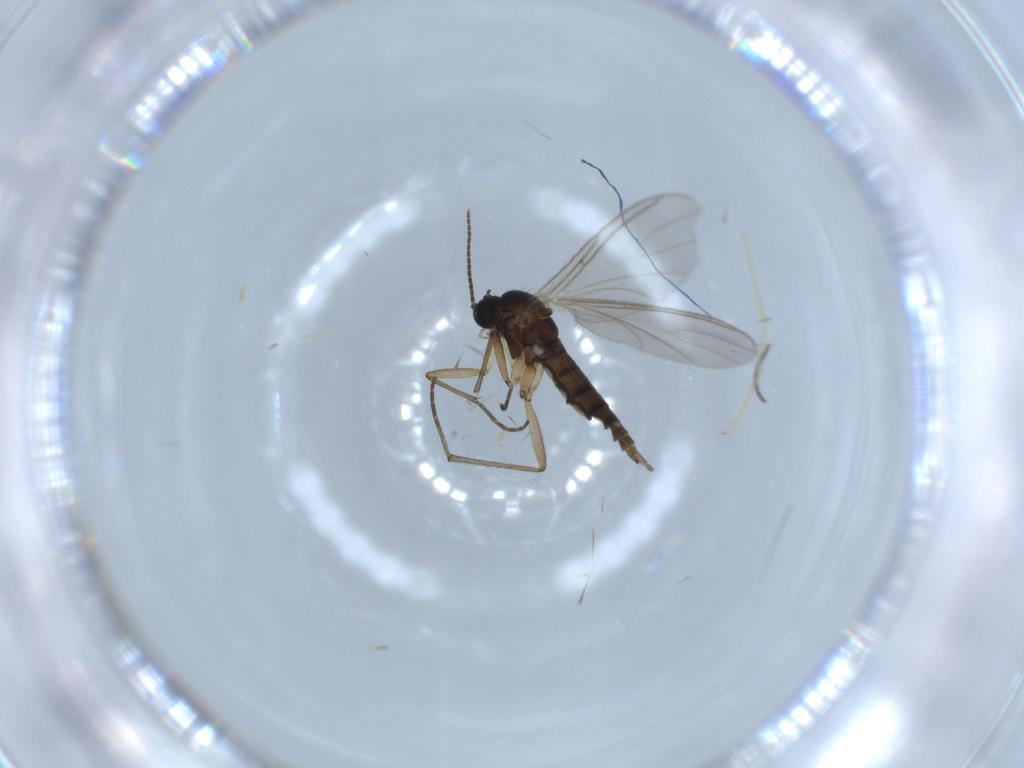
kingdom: Animalia
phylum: Arthropoda
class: Insecta
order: Diptera
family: Sciaridae
